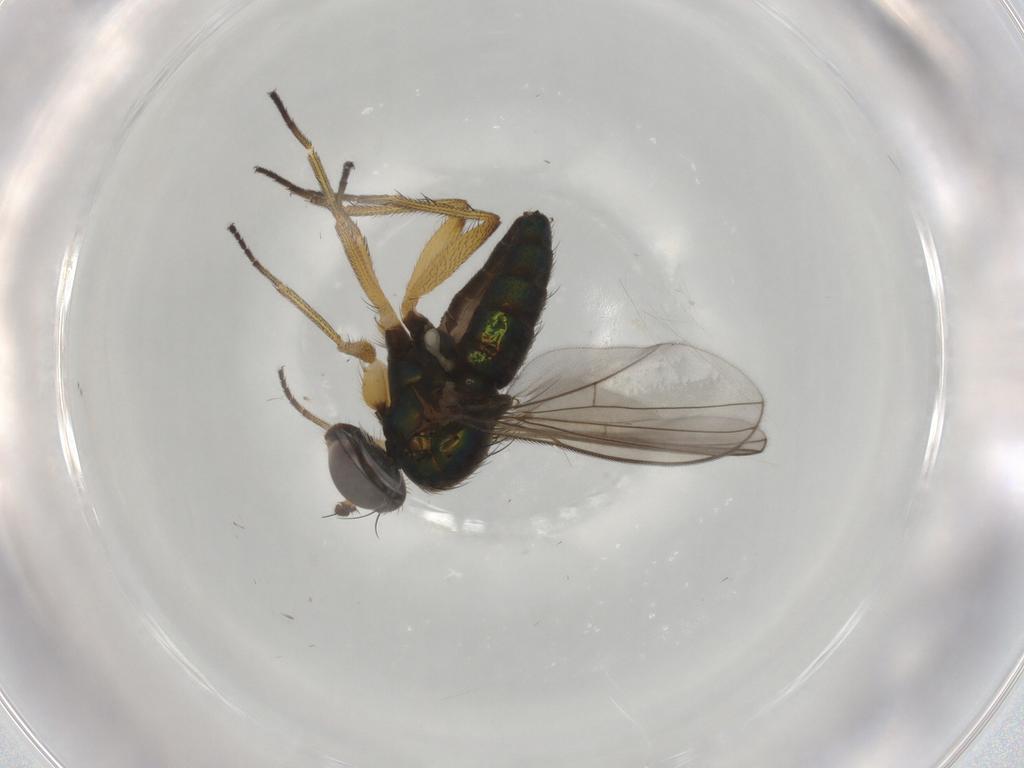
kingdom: Animalia
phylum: Arthropoda
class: Insecta
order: Diptera
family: Dolichopodidae
